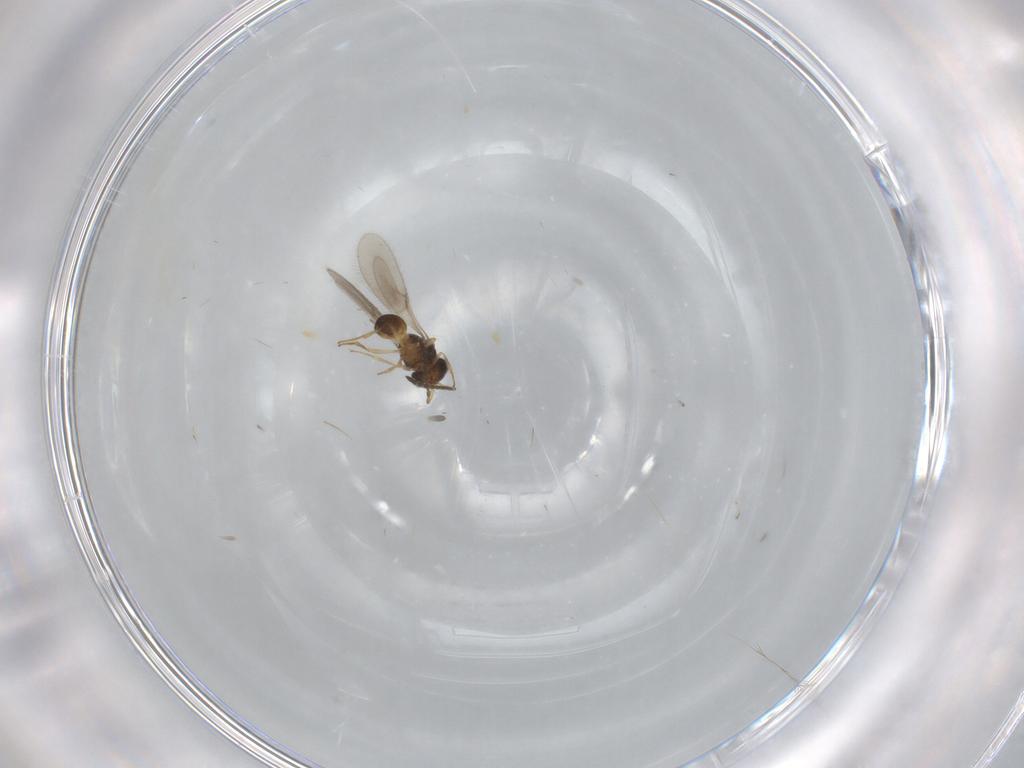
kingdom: Animalia
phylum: Arthropoda
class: Insecta
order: Hymenoptera
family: Scelionidae
